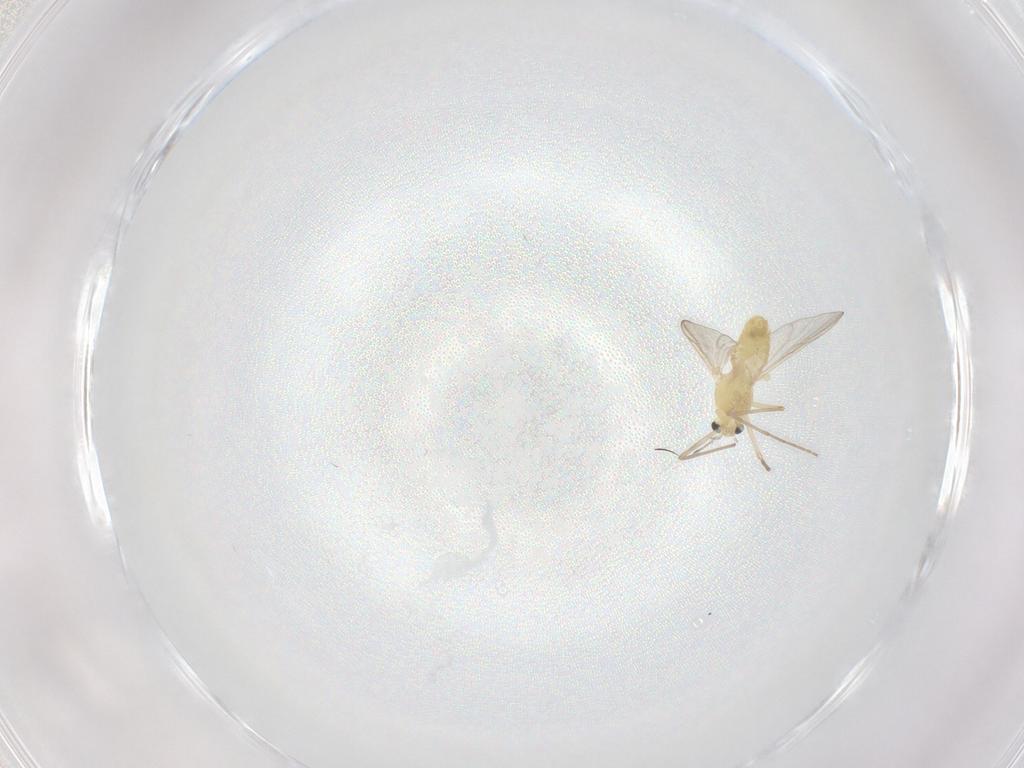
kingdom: Animalia
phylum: Arthropoda
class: Insecta
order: Diptera
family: Chironomidae
